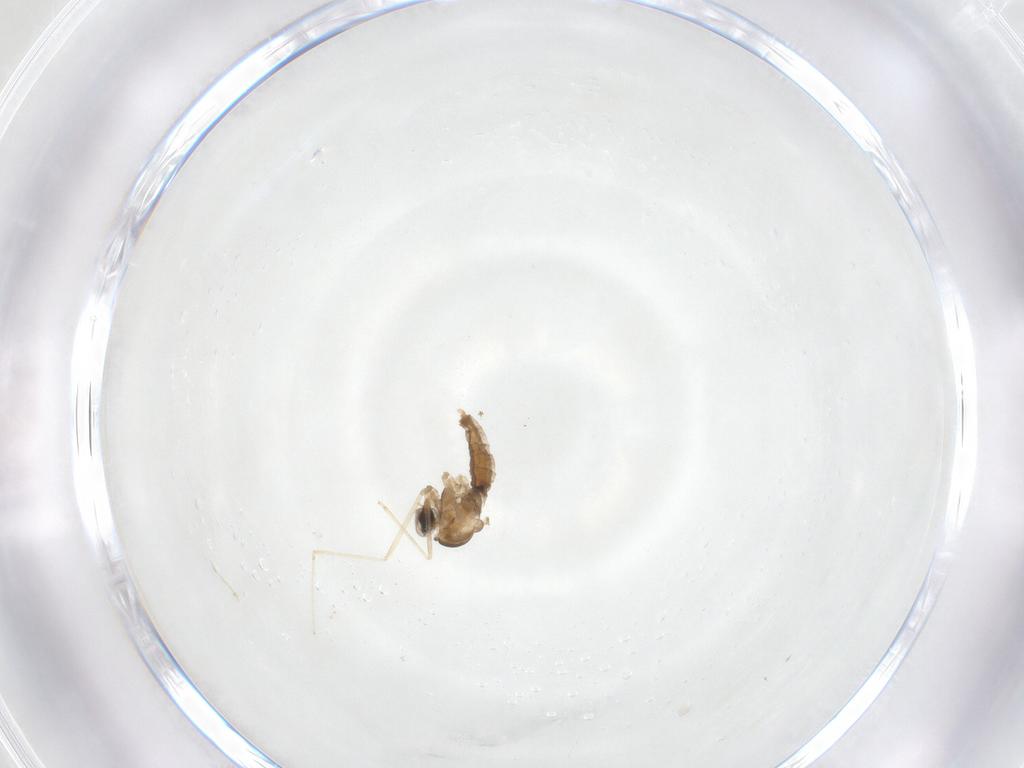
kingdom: Animalia
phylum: Arthropoda
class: Insecta
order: Diptera
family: Cecidomyiidae
